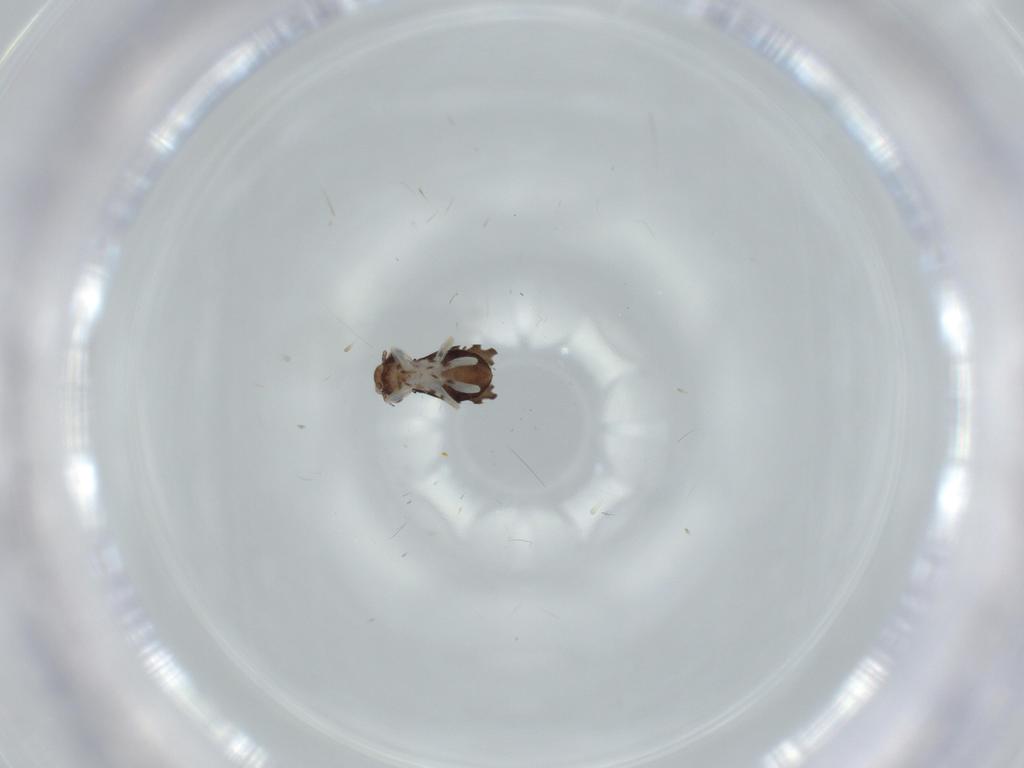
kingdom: Animalia
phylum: Arthropoda
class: Insecta
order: Psocodea
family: Psoquillidae
